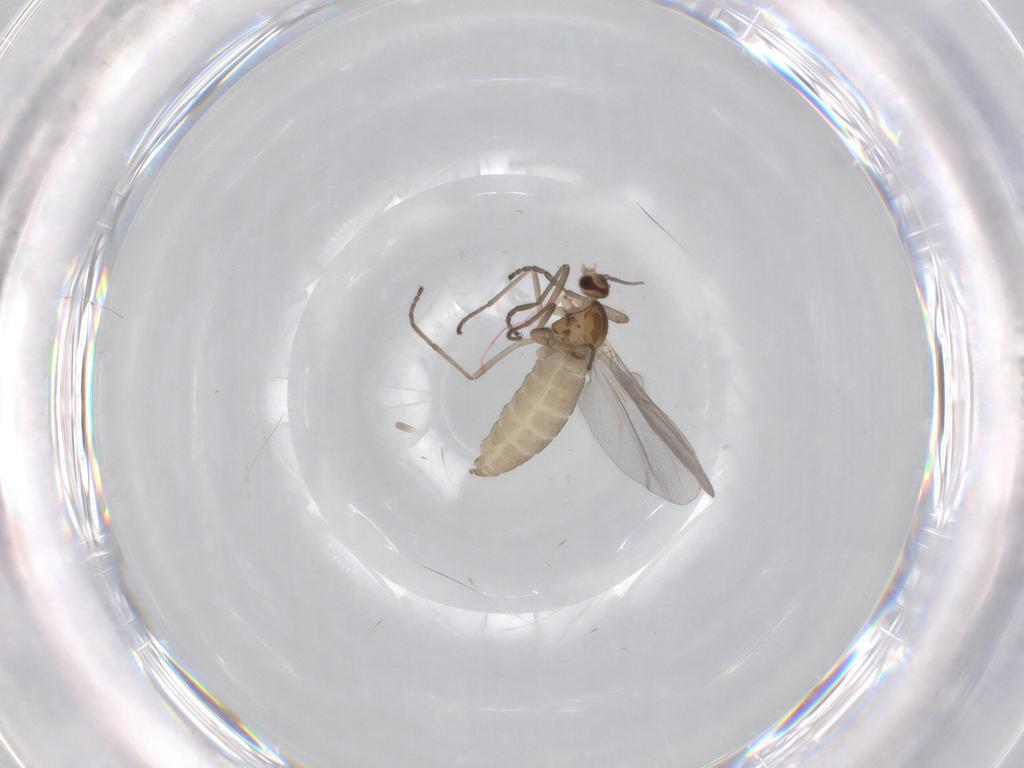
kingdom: Animalia
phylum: Arthropoda
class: Insecta
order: Diptera
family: Cecidomyiidae
